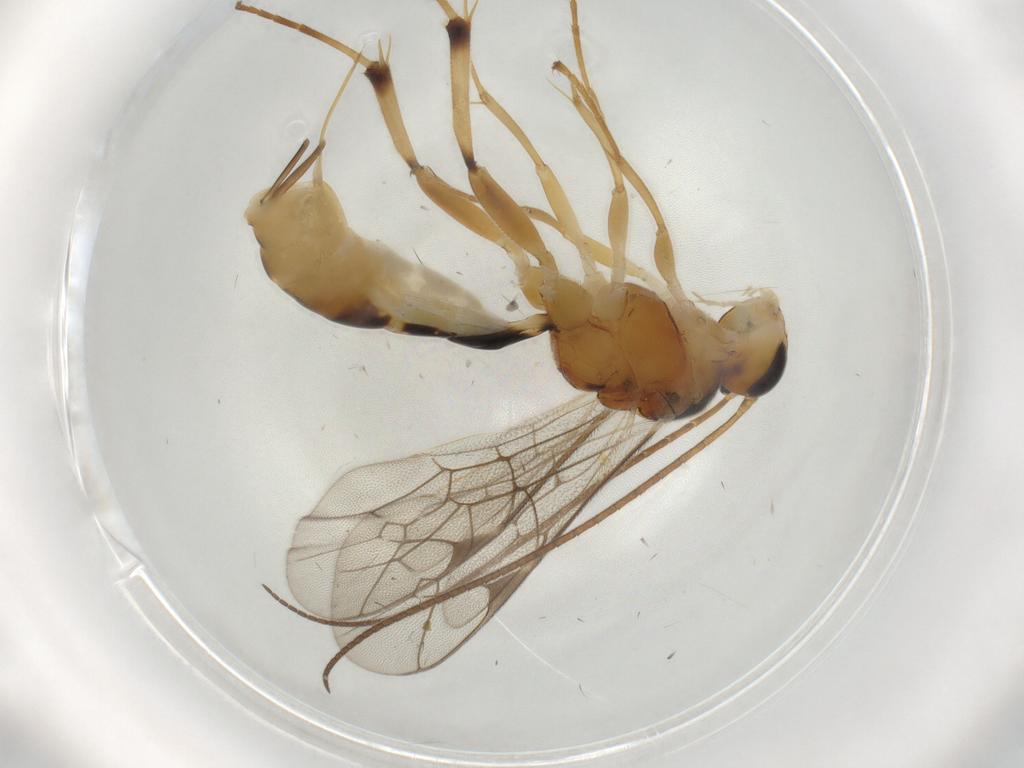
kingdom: Animalia
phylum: Arthropoda
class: Insecta
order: Hymenoptera
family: Ichneumonidae
